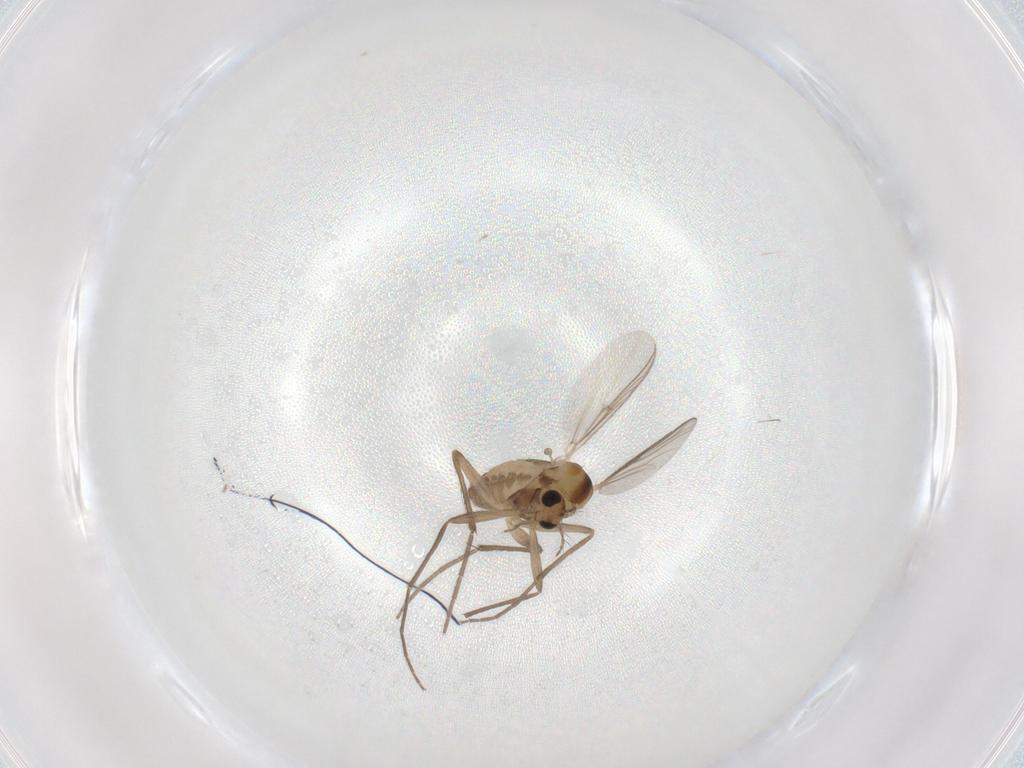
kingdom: Animalia
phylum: Arthropoda
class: Insecta
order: Diptera
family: Chironomidae
